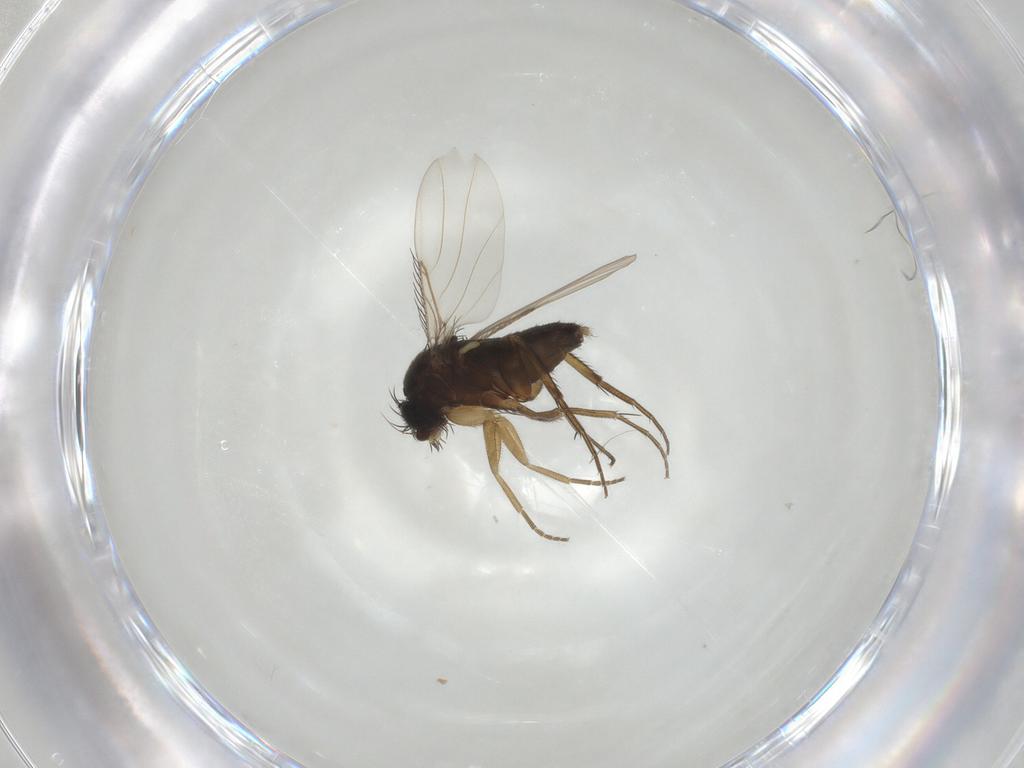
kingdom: Animalia
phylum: Arthropoda
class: Insecta
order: Diptera
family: Phoridae
